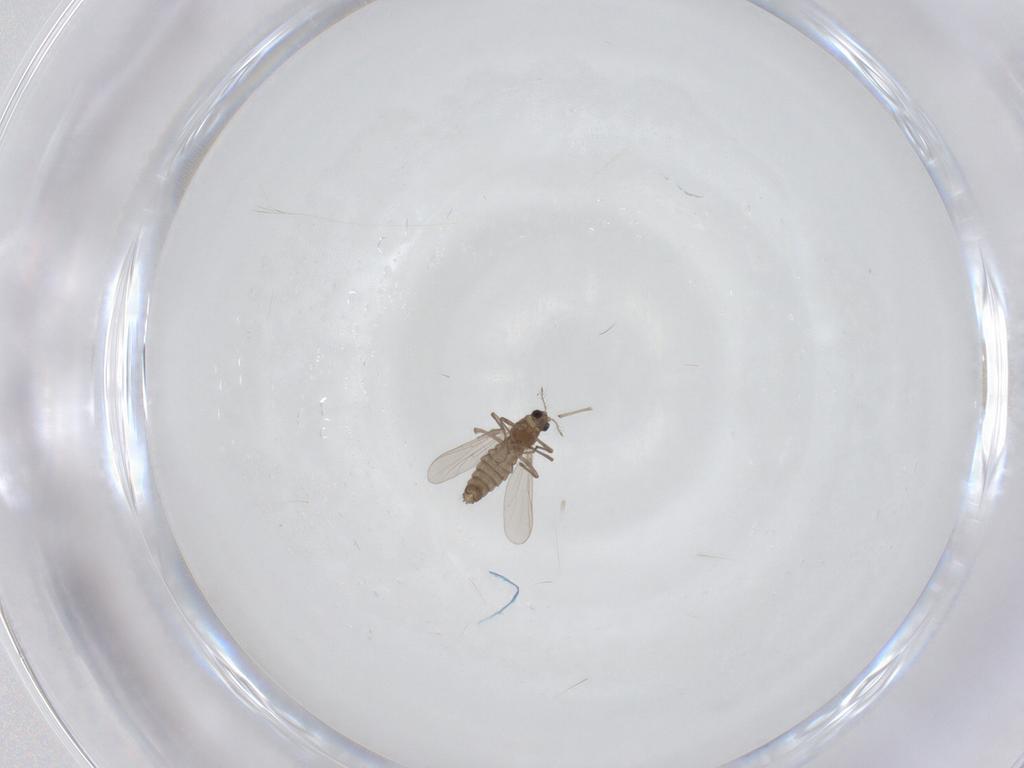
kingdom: Animalia
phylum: Arthropoda
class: Insecta
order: Diptera
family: Chironomidae
